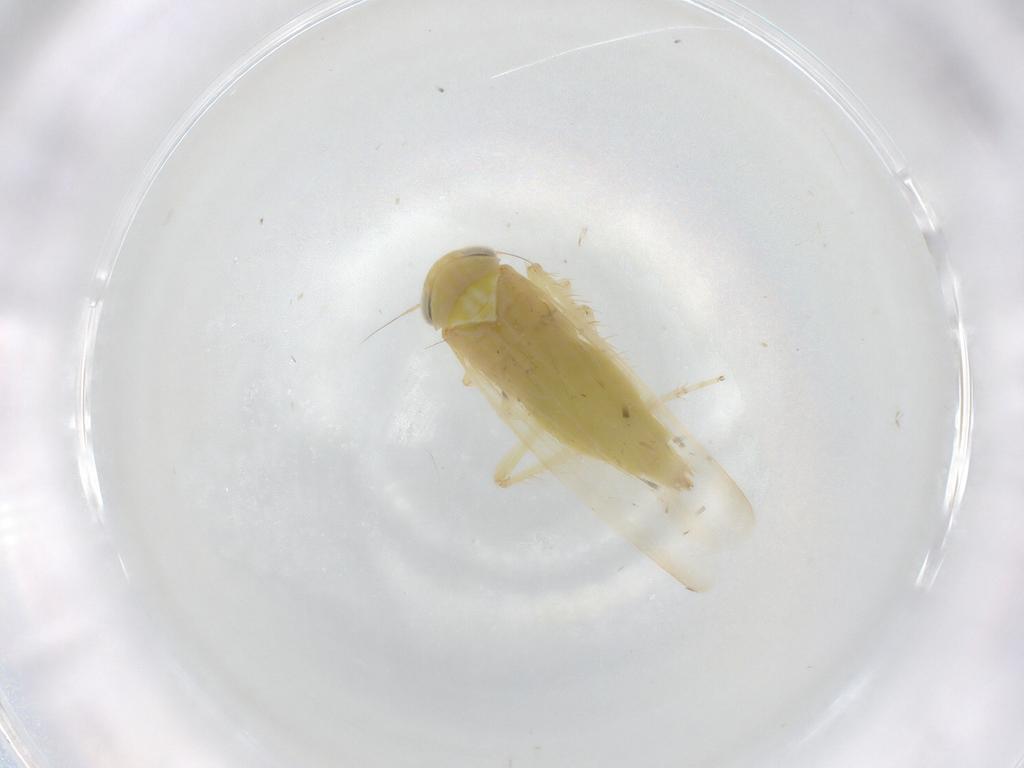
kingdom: Animalia
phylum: Arthropoda
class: Insecta
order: Hemiptera
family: Cicadellidae
